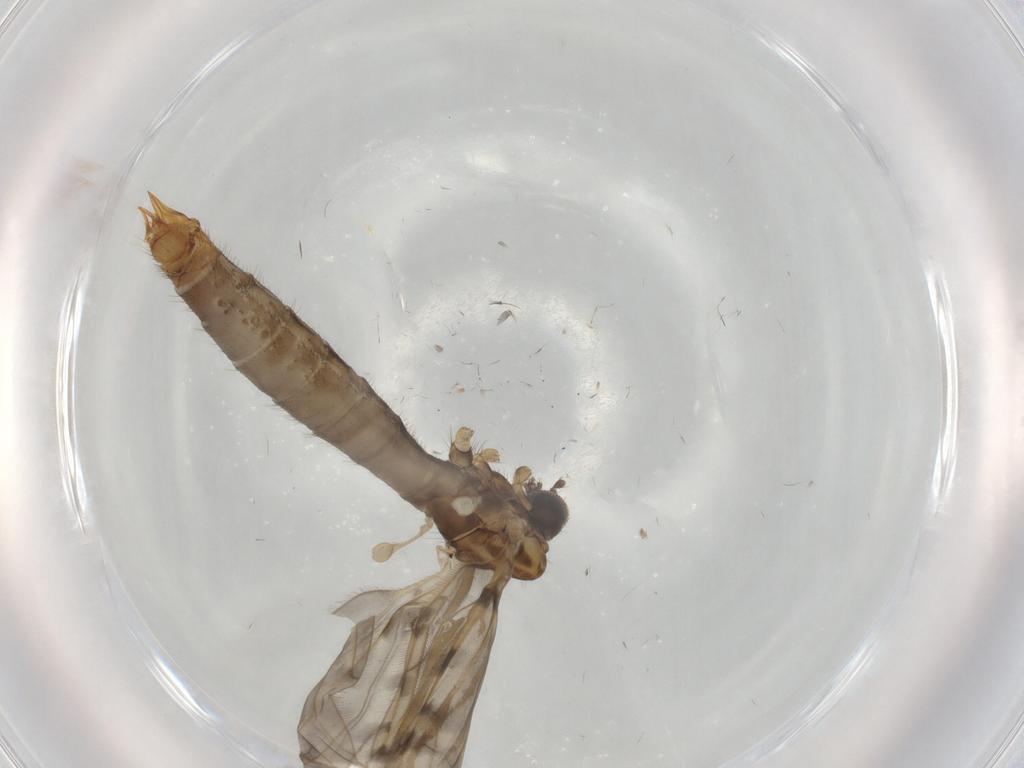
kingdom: Animalia
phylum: Arthropoda
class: Insecta
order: Diptera
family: Limoniidae
